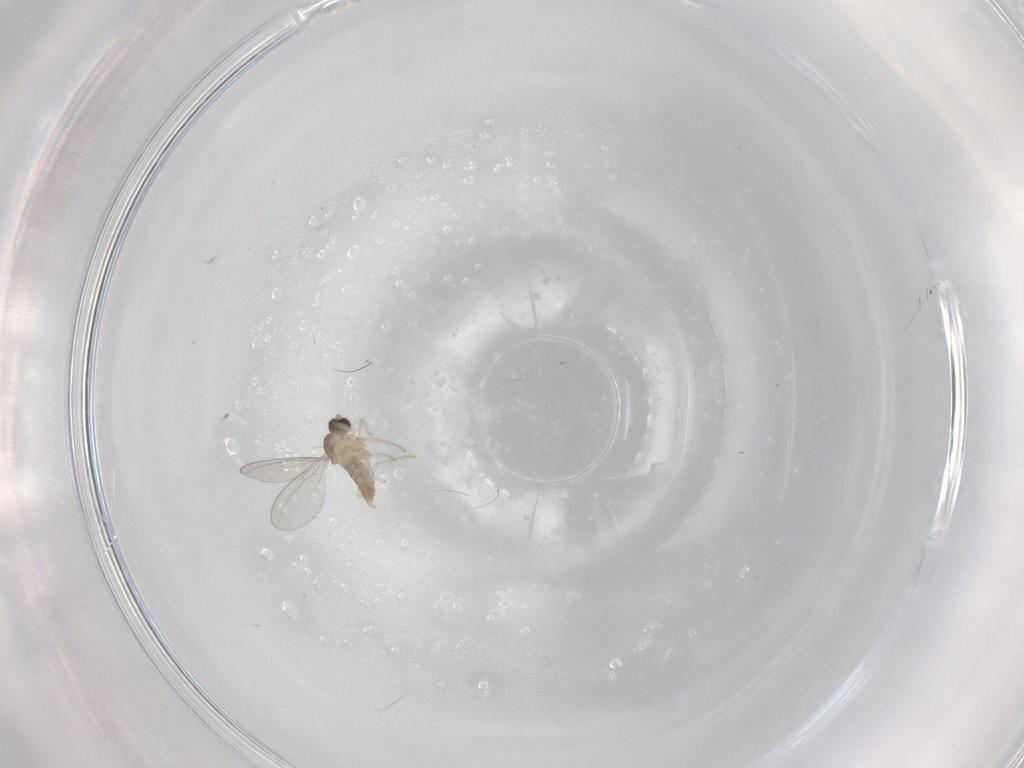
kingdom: Animalia
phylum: Arthropoda
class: Insecta
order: Diptera
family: Cecidomyiidae
